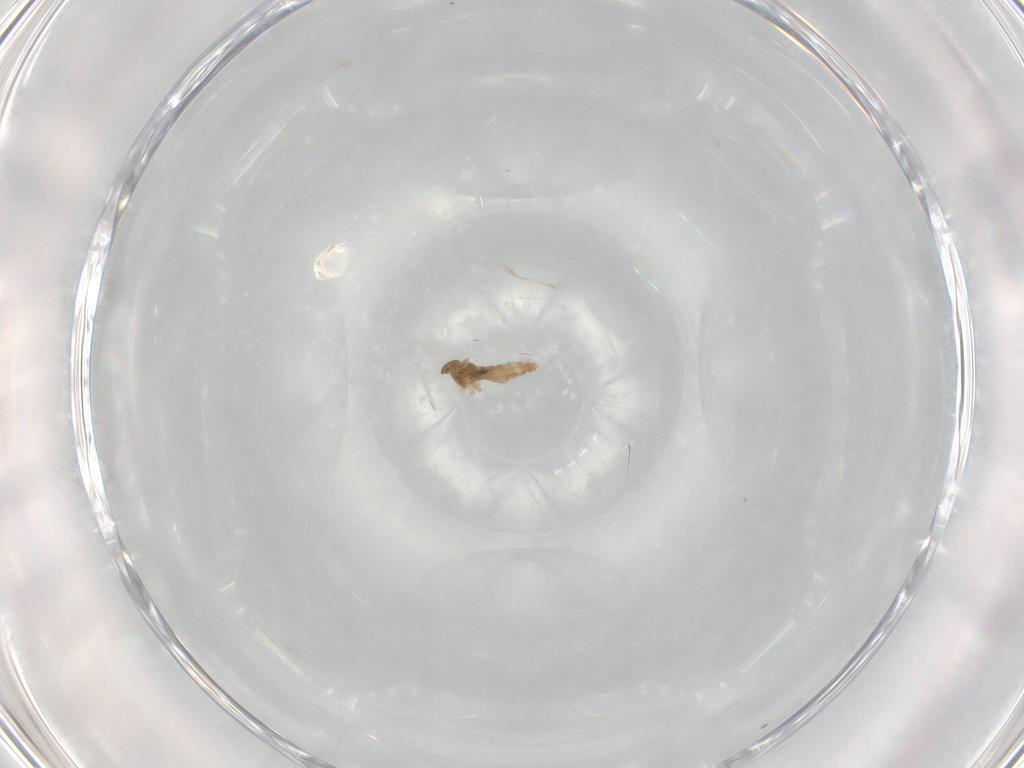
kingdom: Animalia
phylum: Arthropoda
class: Insecta
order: Diptera
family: Cecidomyiidae
